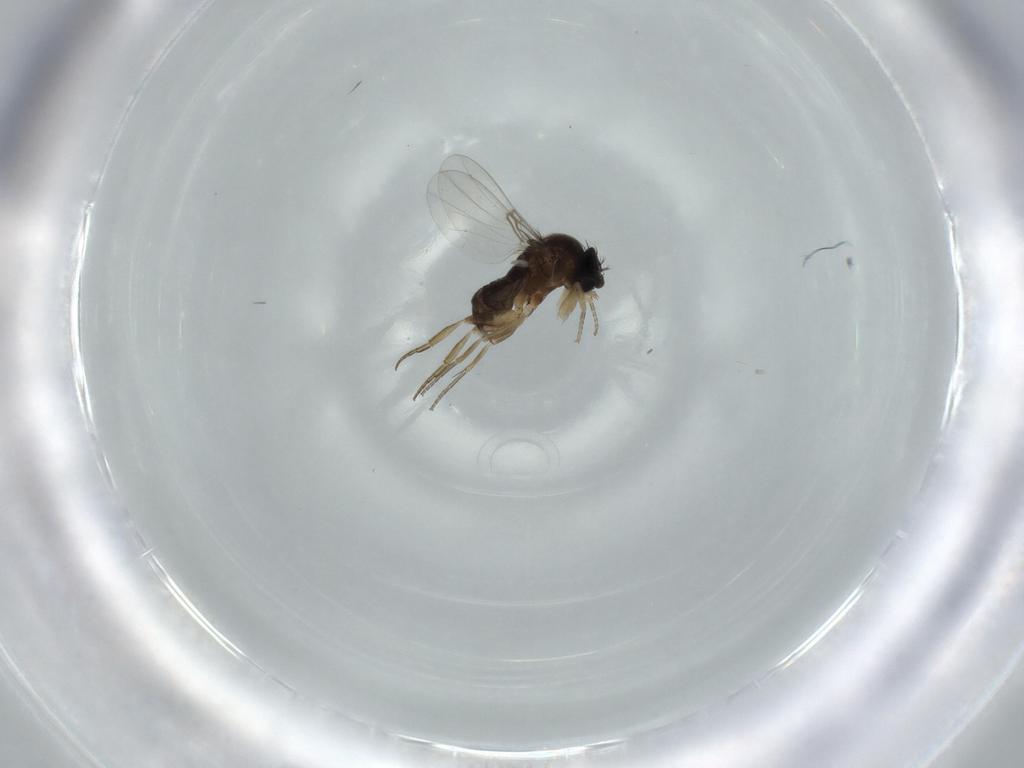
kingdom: Animalia
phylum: Arthropoda
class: Insecta
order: Diptera
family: Phoridae
